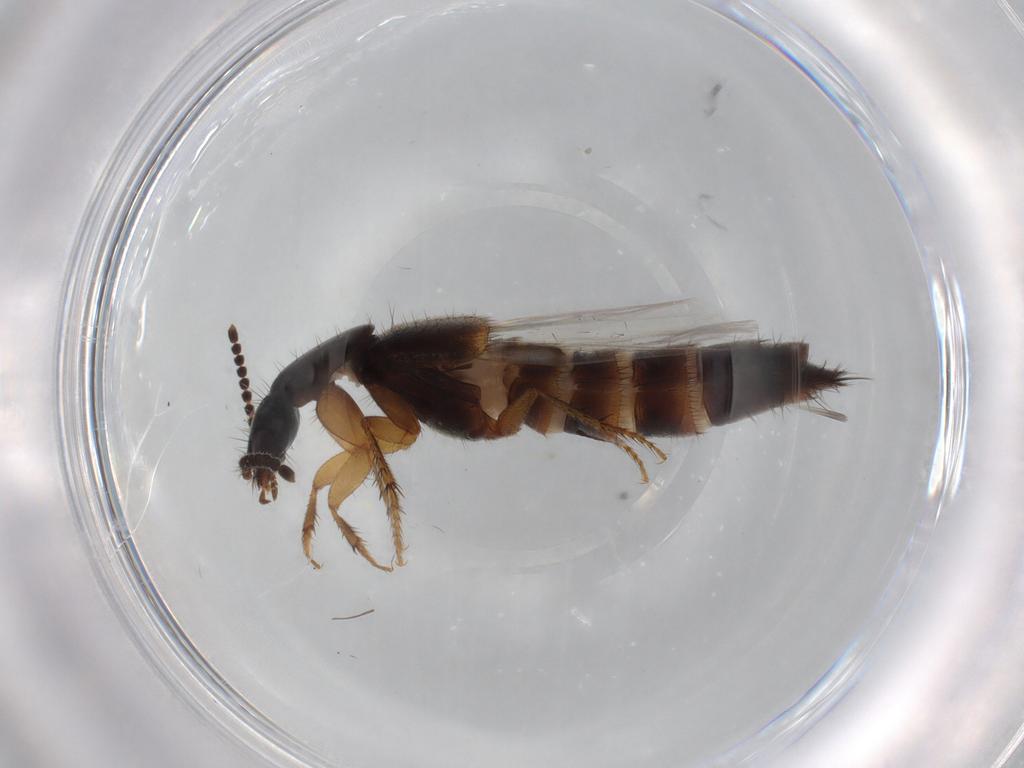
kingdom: Animalia
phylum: Arthropoda
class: Insecta
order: Coleoptera
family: Staphylinidae
